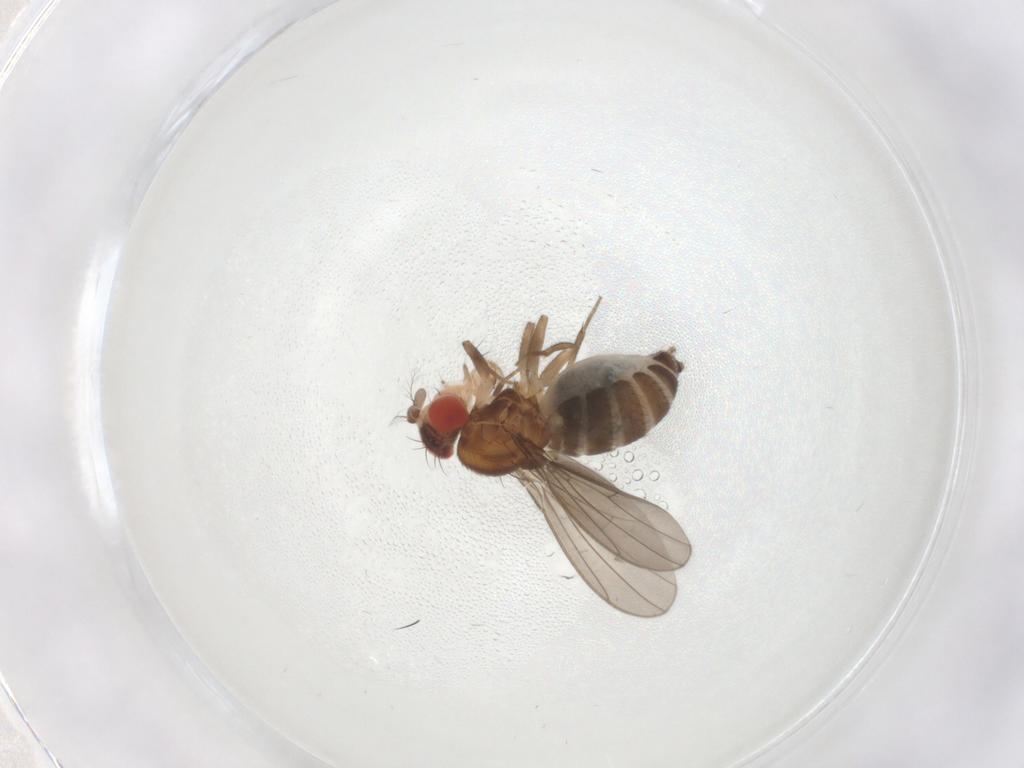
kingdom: Animalia
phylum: Arthropoda
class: Insecta
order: Diptera
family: Drosophilidae
